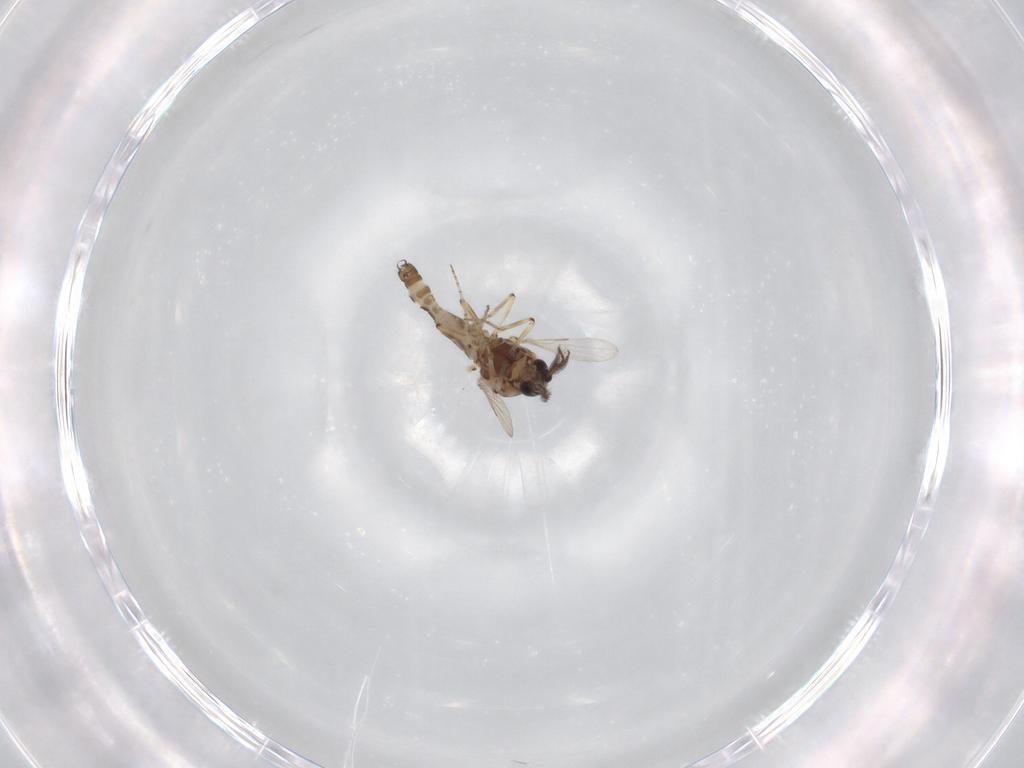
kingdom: Animalia
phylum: Arthropoda
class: Insecta
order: Diptera
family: Ceratopogonidae
